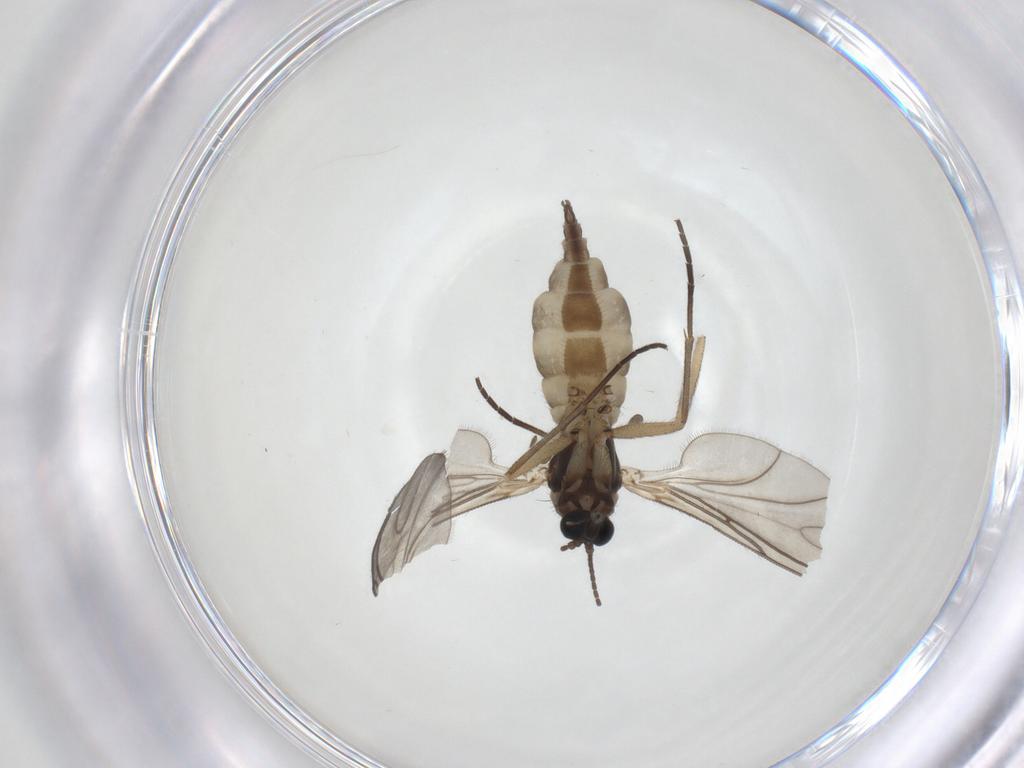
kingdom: Animalia
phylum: Arthropoda
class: Insecta
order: Diptera
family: Sciaridae
